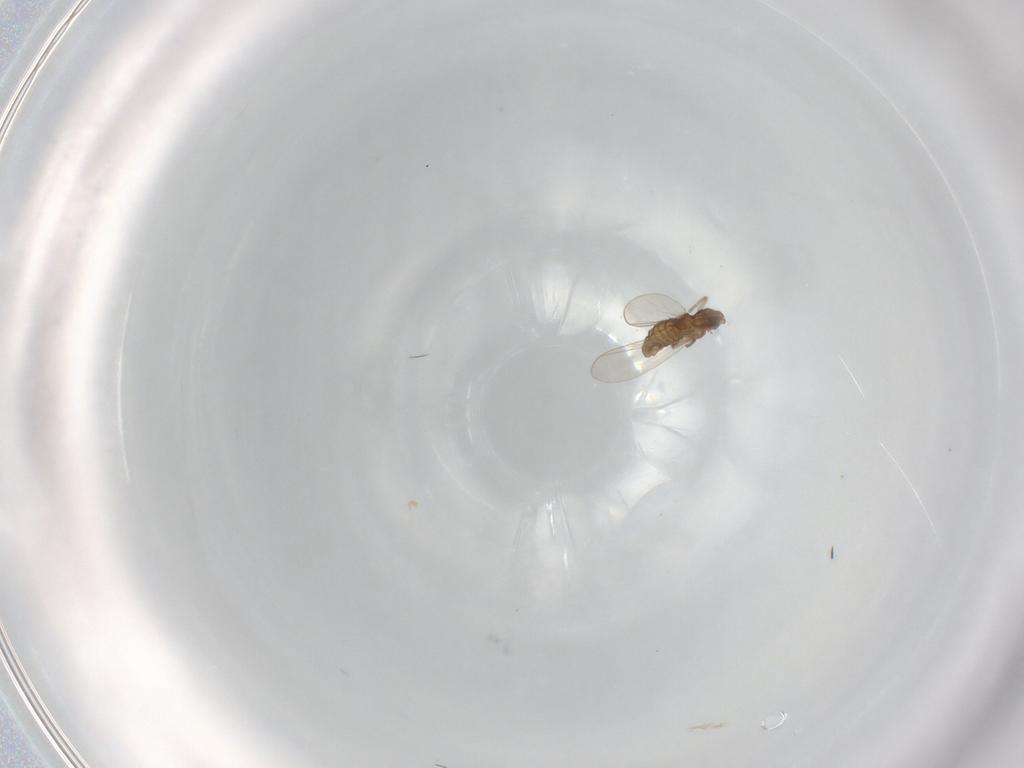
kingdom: Animalia
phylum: Arthropoda
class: Insecta
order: Diptera
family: Chironomidae
